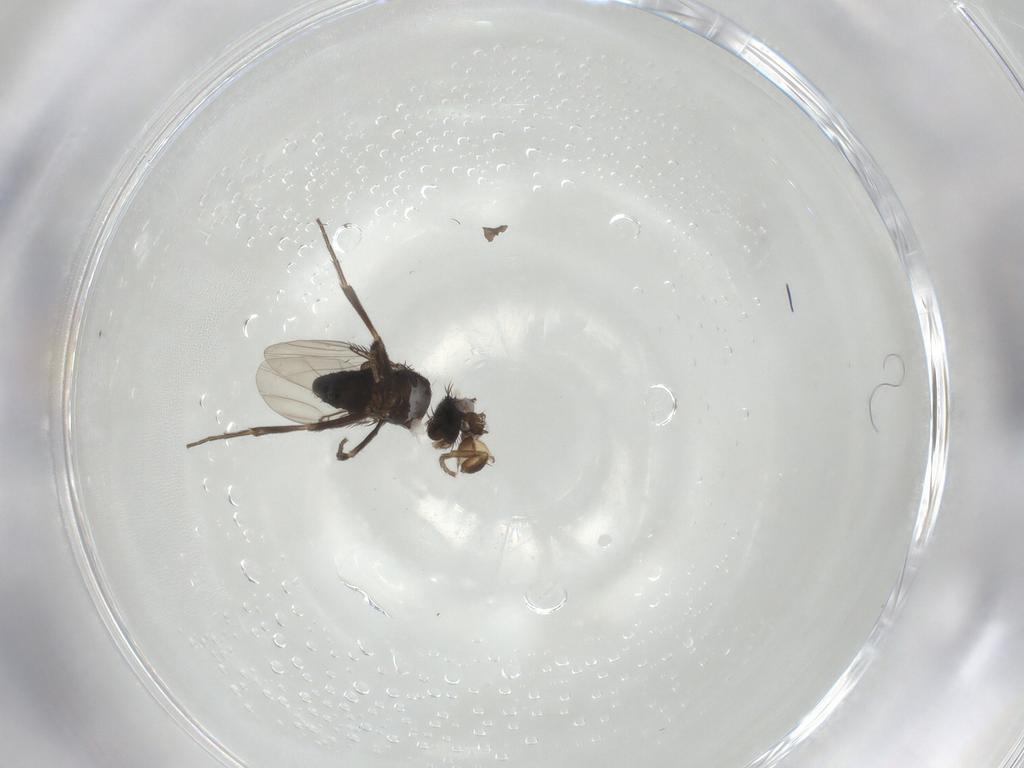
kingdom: Animalia
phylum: Arthropoda
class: Insecta
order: Diptera
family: Phoridae
